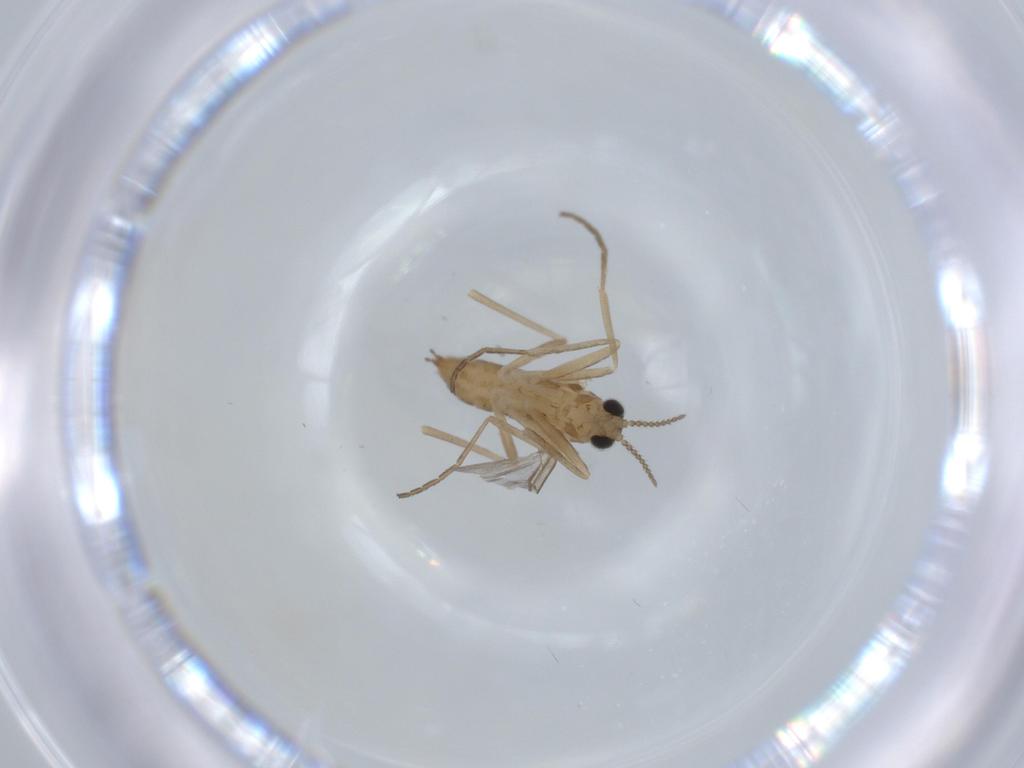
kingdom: Animalia
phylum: Arthropoda
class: Insecta
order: Diptera
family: Cecidomyiidae
